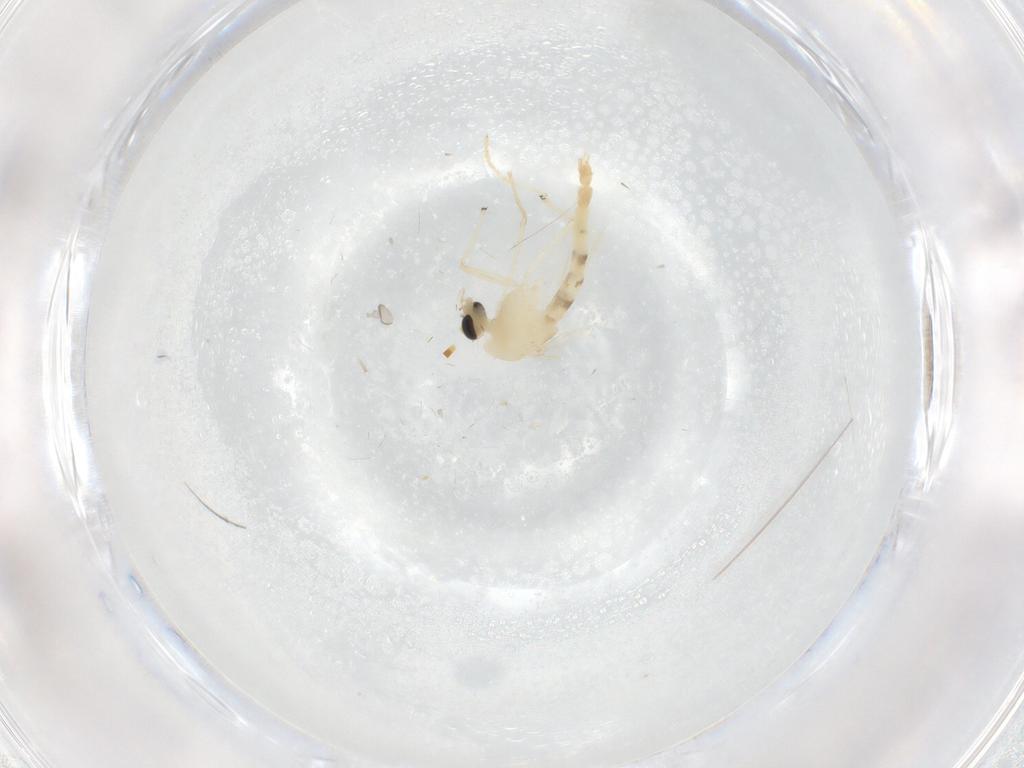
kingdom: Animalia
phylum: Arthropoda
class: Insecta
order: Diptera
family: Chironomidae
